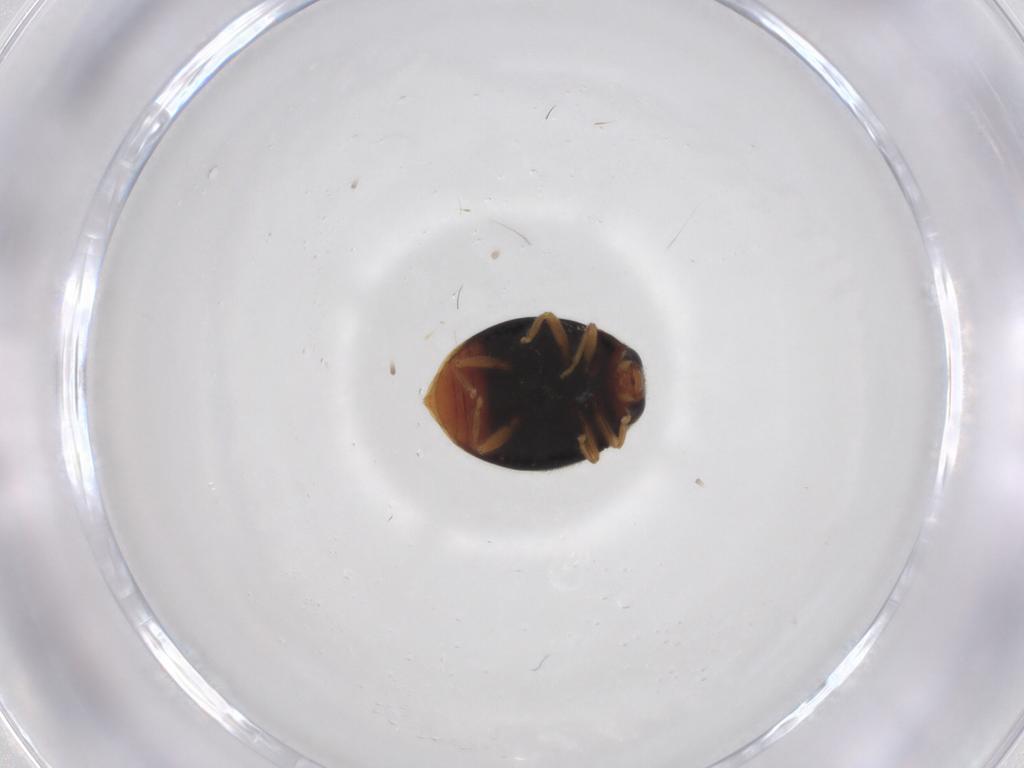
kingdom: Animalia
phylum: Arthropoda
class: Insecta
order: Coleoptera
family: Coccinellidae
